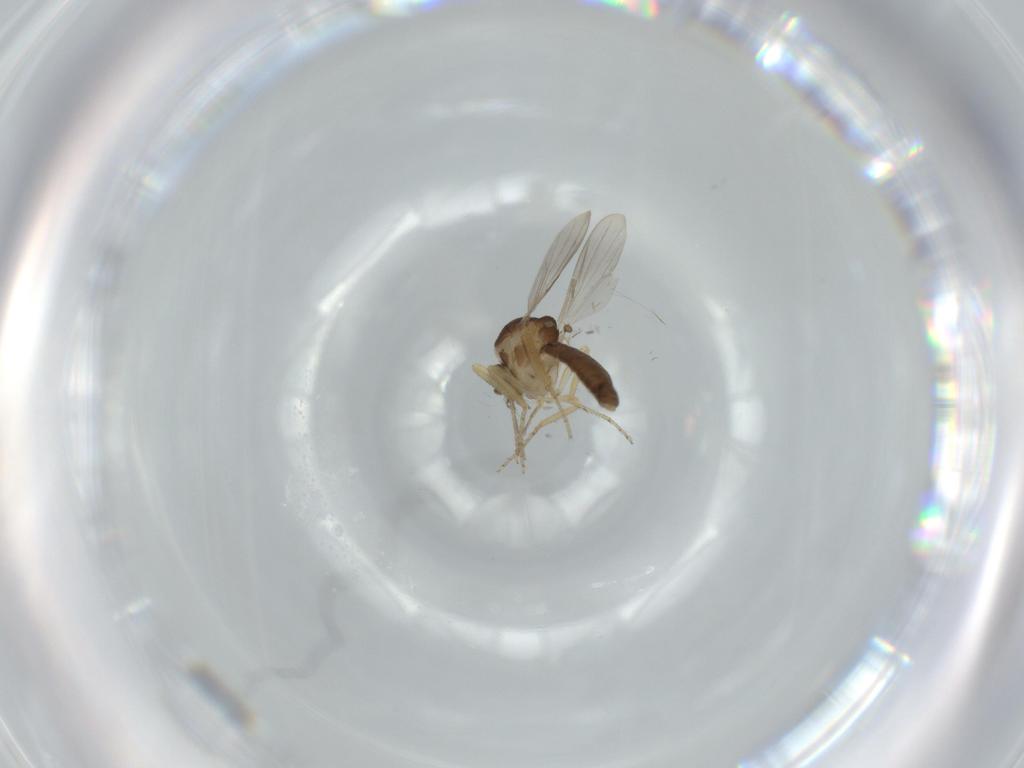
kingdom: Animalia
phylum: Arthropoda
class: Insecta
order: Diptera
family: Ceratopogonidae
